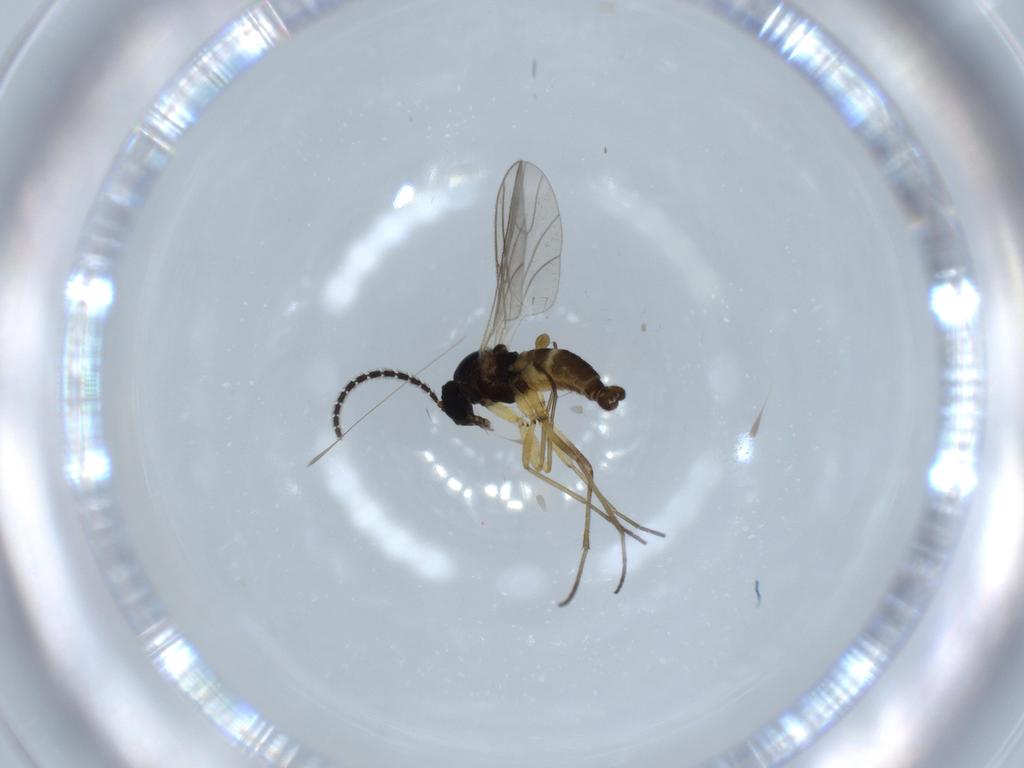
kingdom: Animalia
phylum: Arthropoda
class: Insecta
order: Diptera
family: Sciaridae
